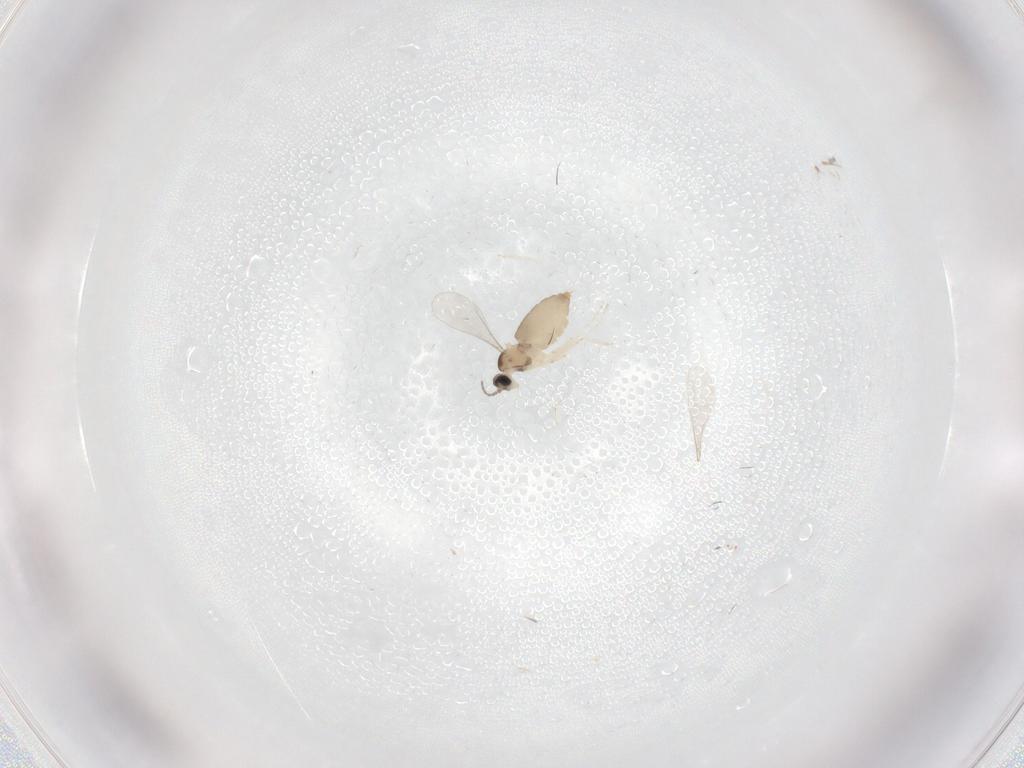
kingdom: Animalia
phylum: Arthropoda
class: Insecta
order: Diptera
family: Cecidomyiidae
